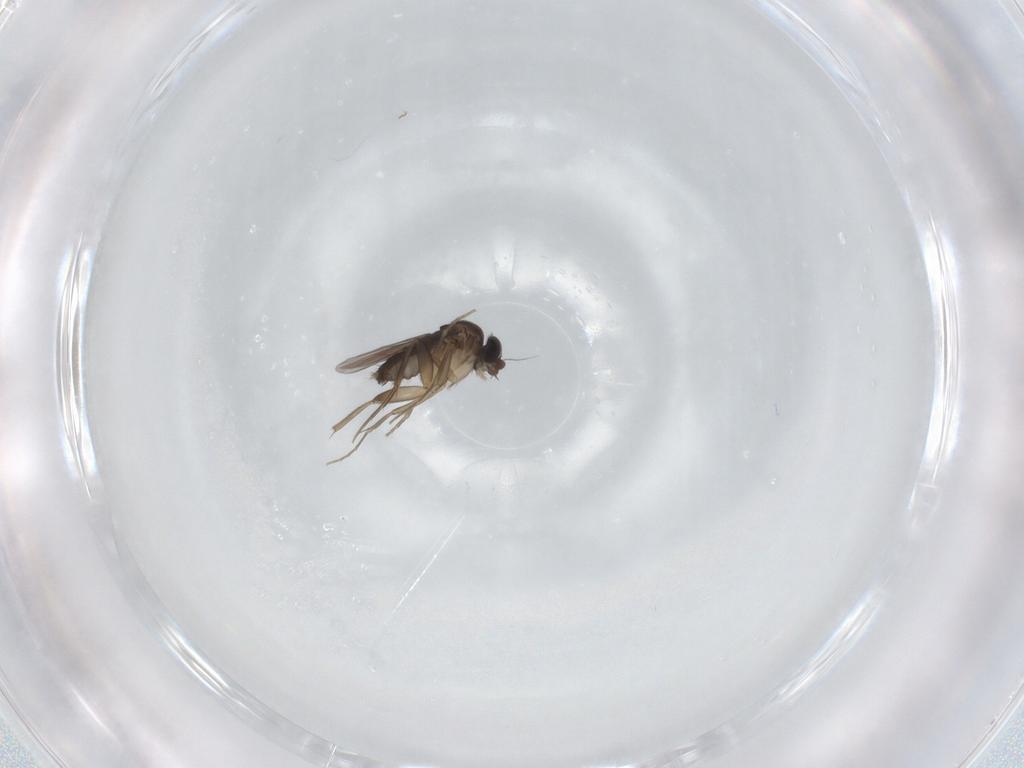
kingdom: Animalia
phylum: Arthropoda
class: Insecta
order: Diptera
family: Phoridae
